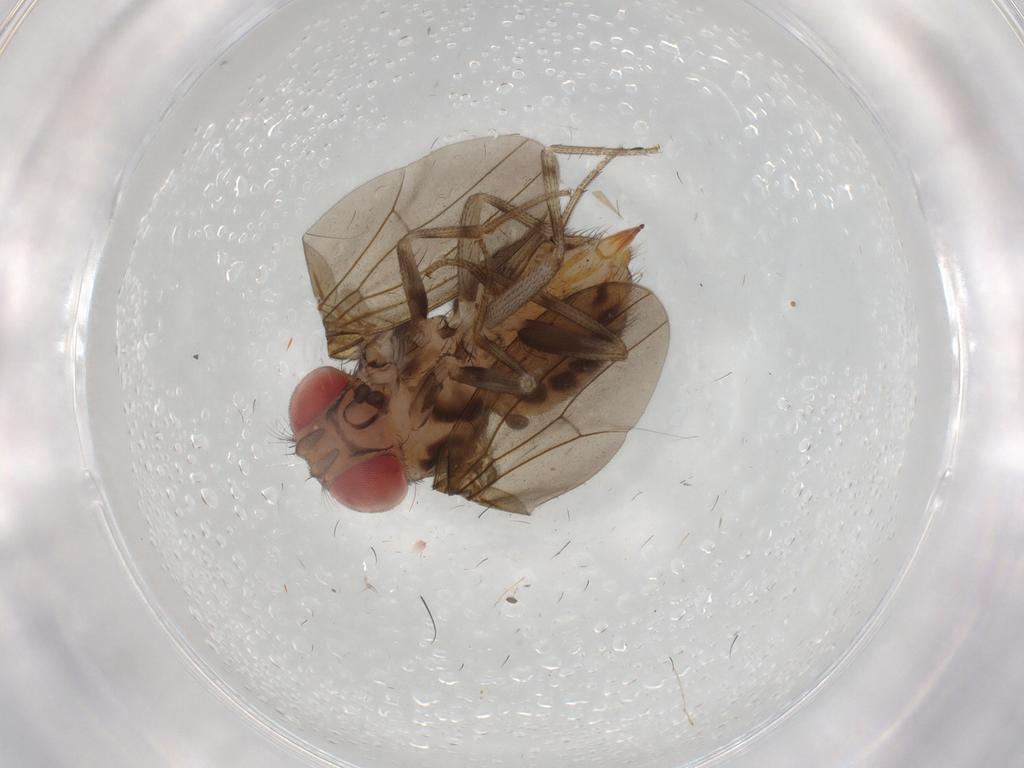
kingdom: Animalia
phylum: Arthropoda
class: Insecta
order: Diptera
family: Drosophilidae
